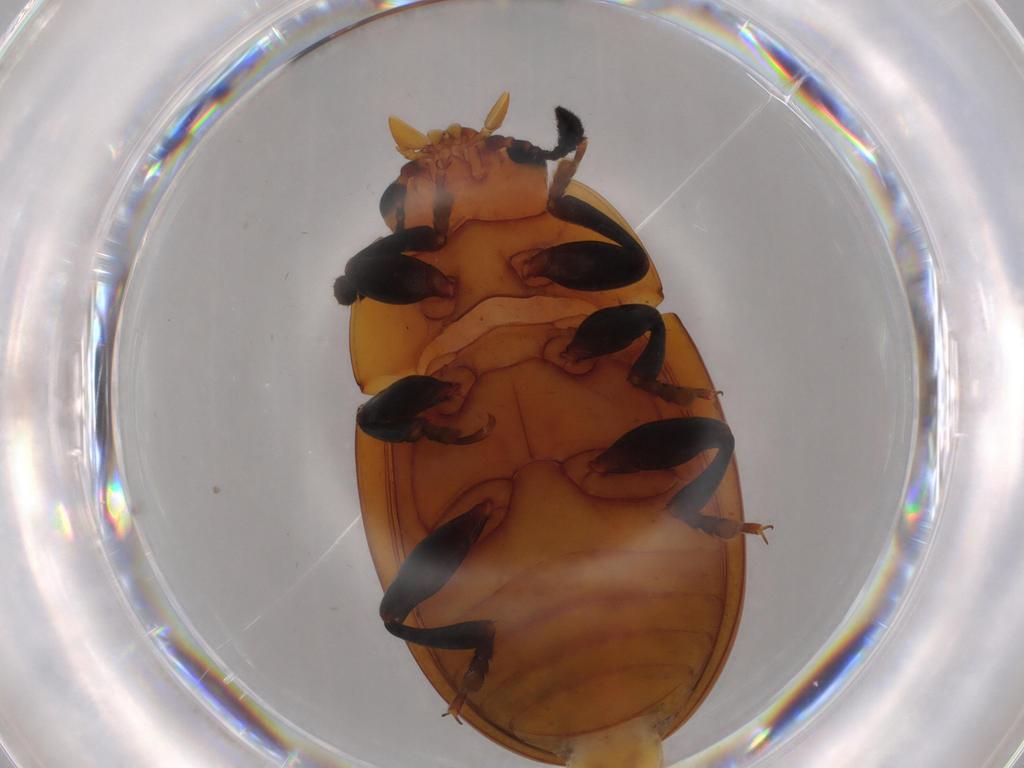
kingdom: Animalia
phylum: Arthropoda
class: Insecta
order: Coleoptera
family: Erotylidae
